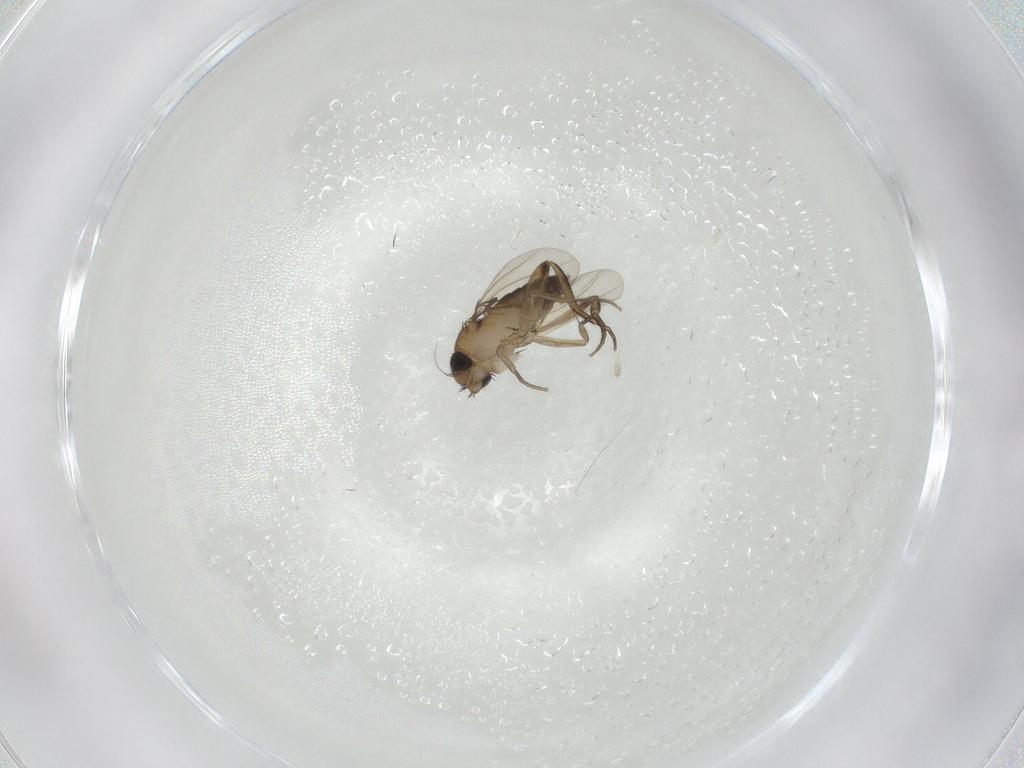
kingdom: Animalia
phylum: Arthropoda
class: Insecta
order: Diptera
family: Phoridae
